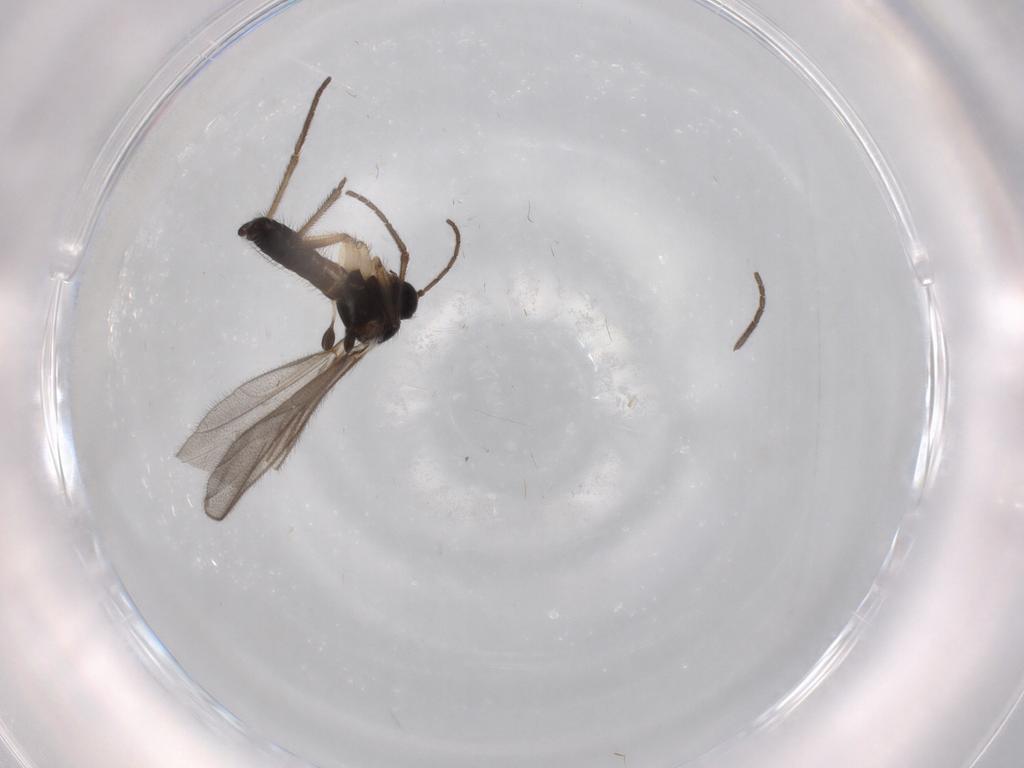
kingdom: Animalia
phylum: Arthropoda
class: Insecta
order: Diptera
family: Mycetophilidae
